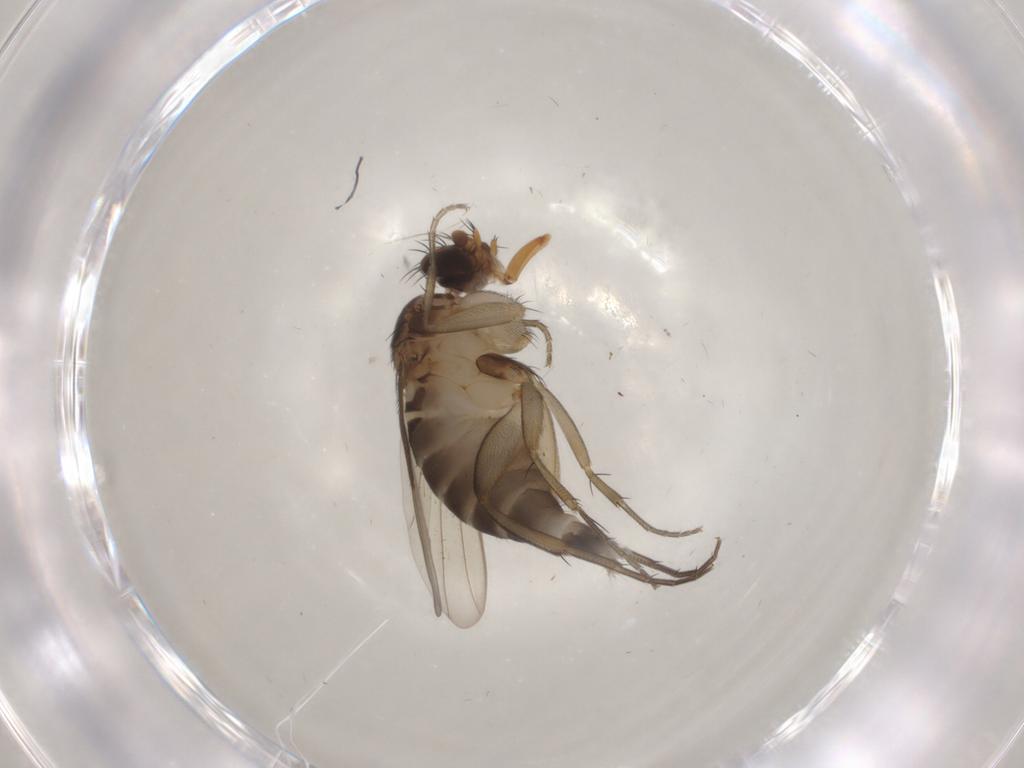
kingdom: Animalia
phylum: Arthropoda
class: Insecta
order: Diptera
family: Phoridae
